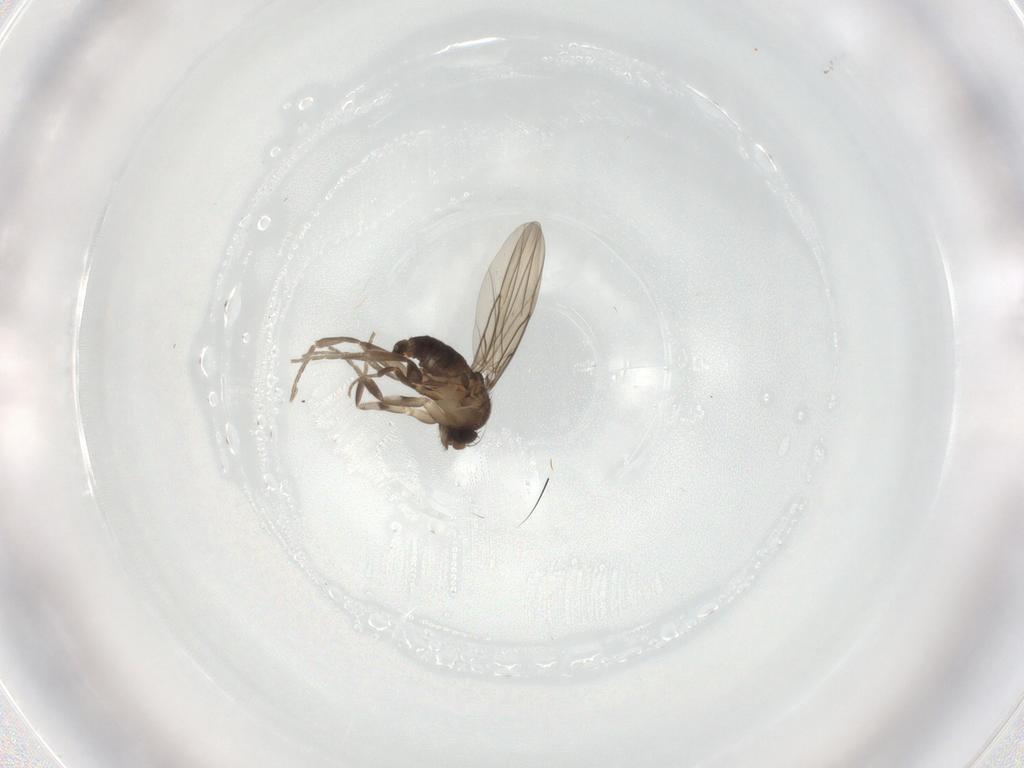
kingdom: Animalia
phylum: Arthropoda
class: Insecta
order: Diptera
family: Phoridae
